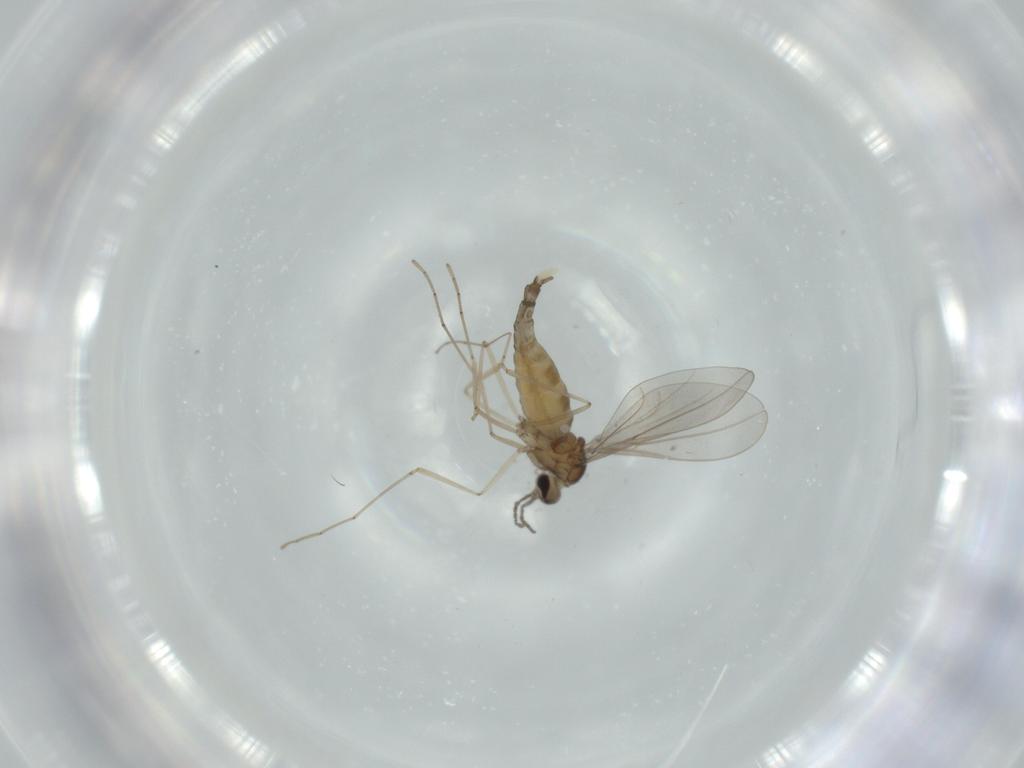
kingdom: Animalia
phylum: Arthropoda
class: Insecta
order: Diptera
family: Cecidomyiidae
